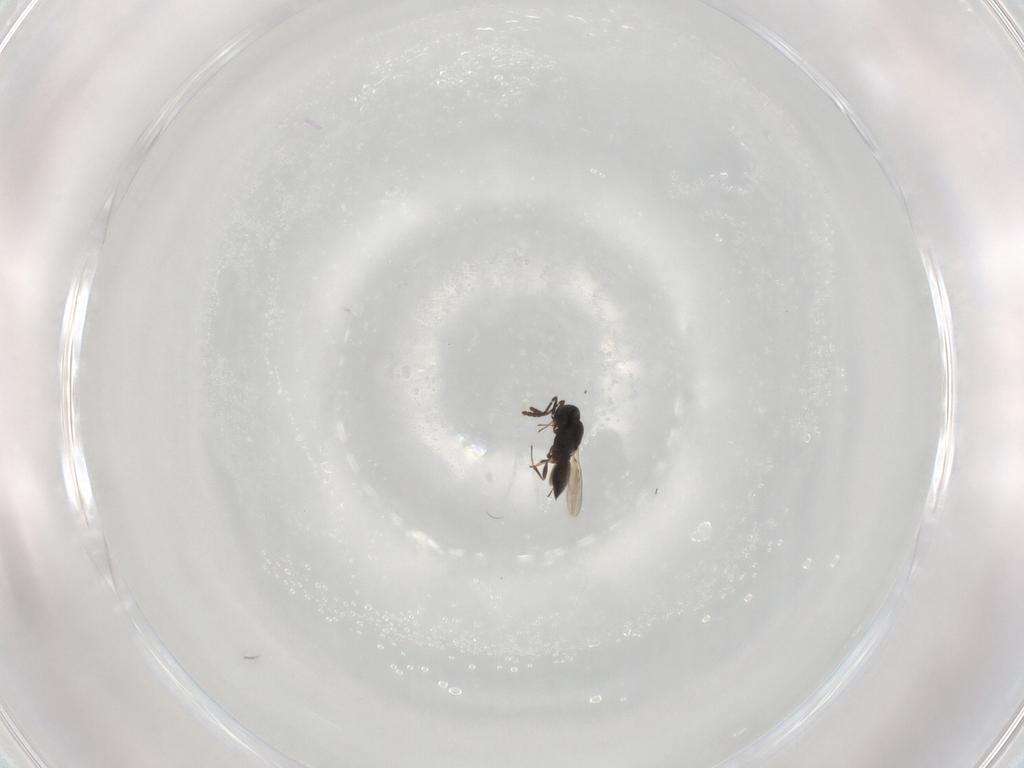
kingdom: Animalia
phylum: Arthropoda
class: Insecta
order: Hymenoptera
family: Scelionidae
